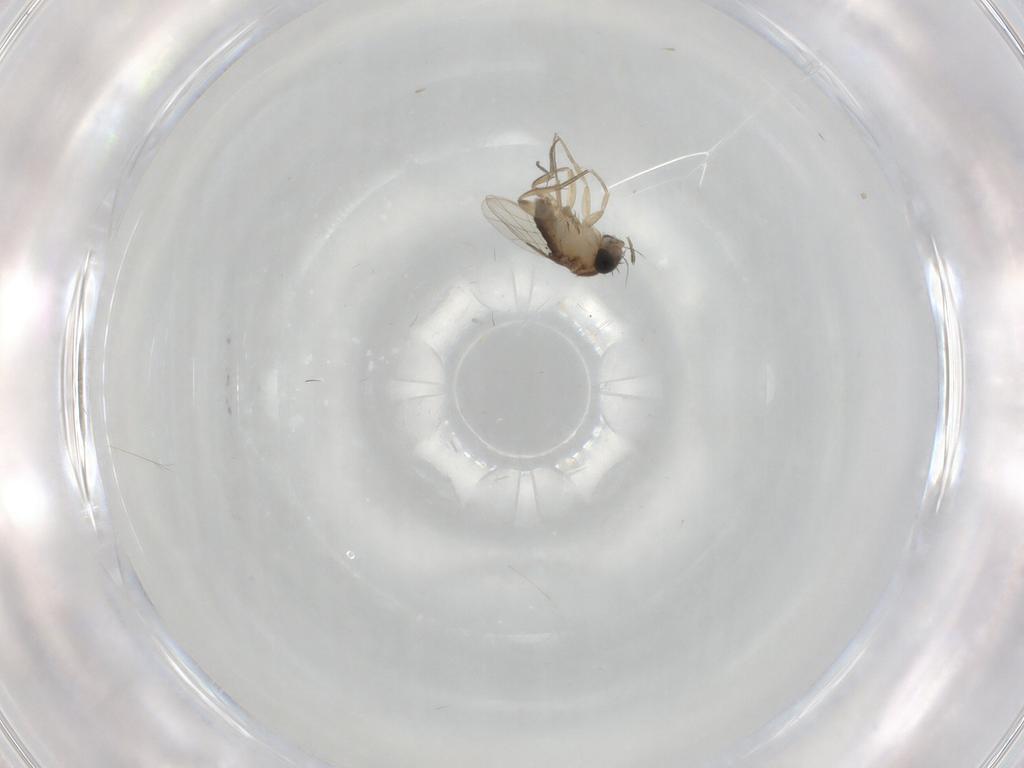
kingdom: Animalia
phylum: Arthropoda
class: Insecta
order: Diptera
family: Phoridae
